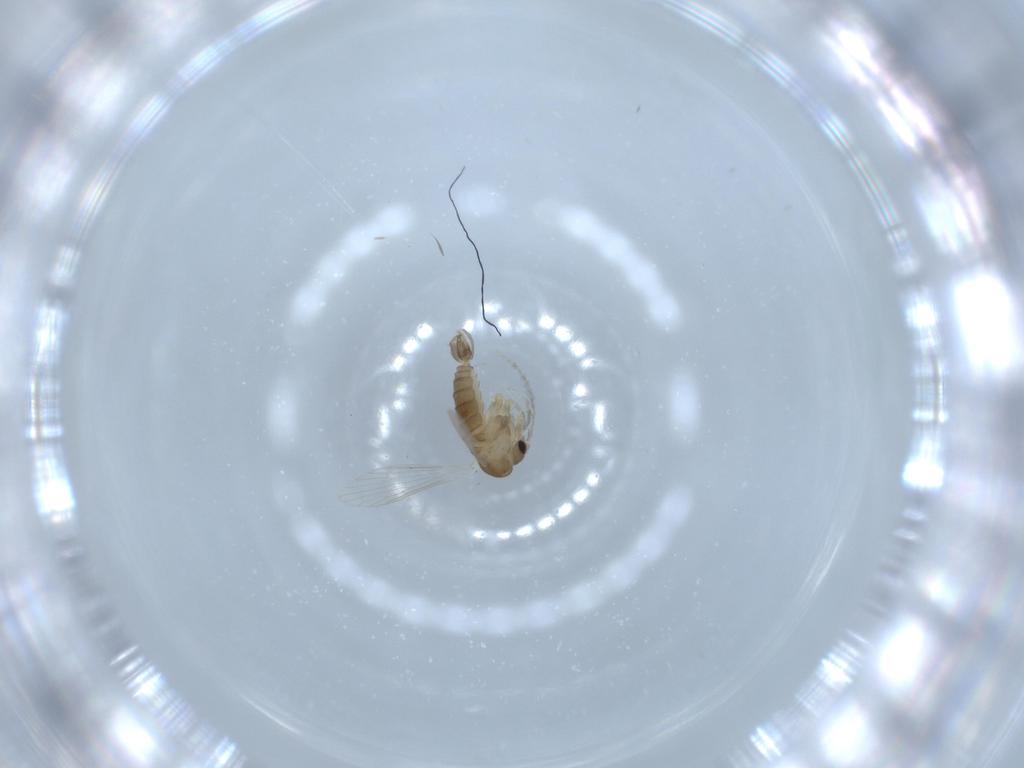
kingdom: Animalia
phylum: Arthropoda
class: Insecta
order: Diptera
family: Psychodidae
